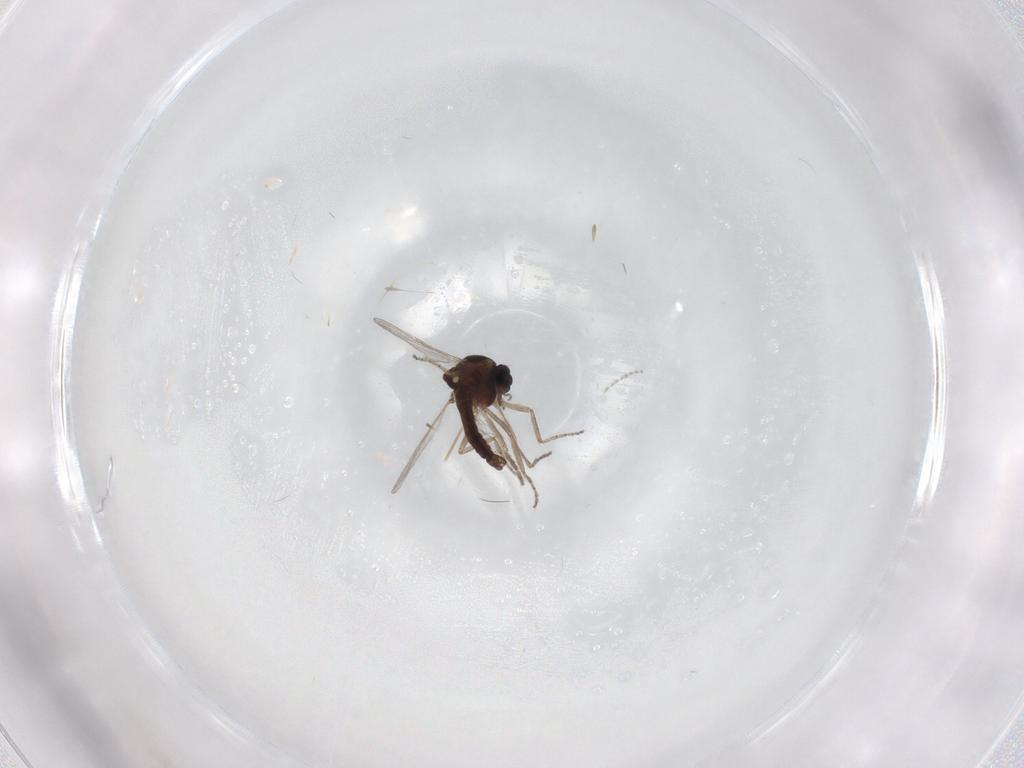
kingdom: Animalia
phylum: Arthropoda
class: Insecta
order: Diptera
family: Ceratopogonidae
